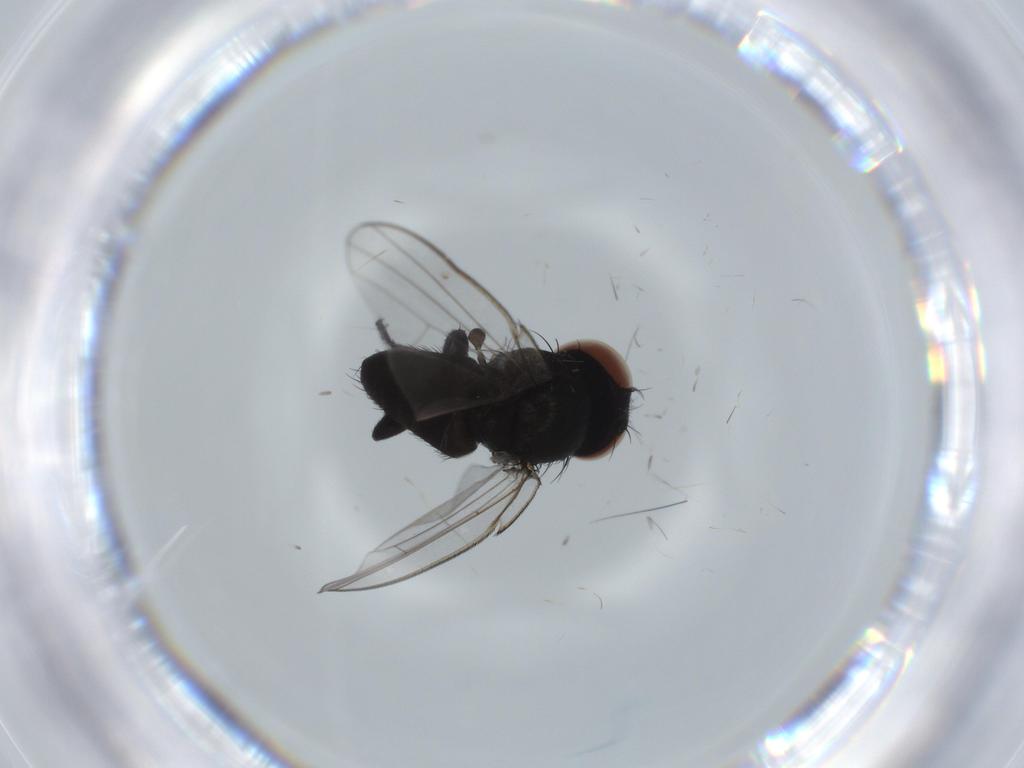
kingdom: Animalia
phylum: Arthropoda
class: Insecta
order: Diptera
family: Milichiidae
